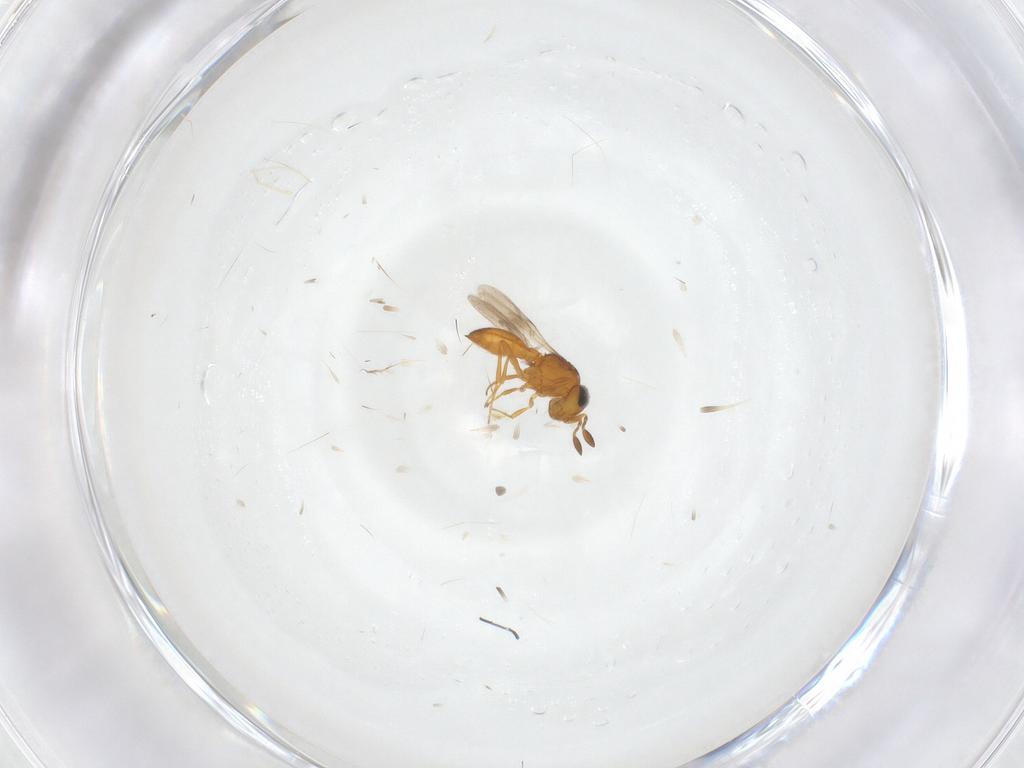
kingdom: Animalia
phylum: Arthropoda
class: Insecta
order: Hymenoptera
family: Scelionidae
